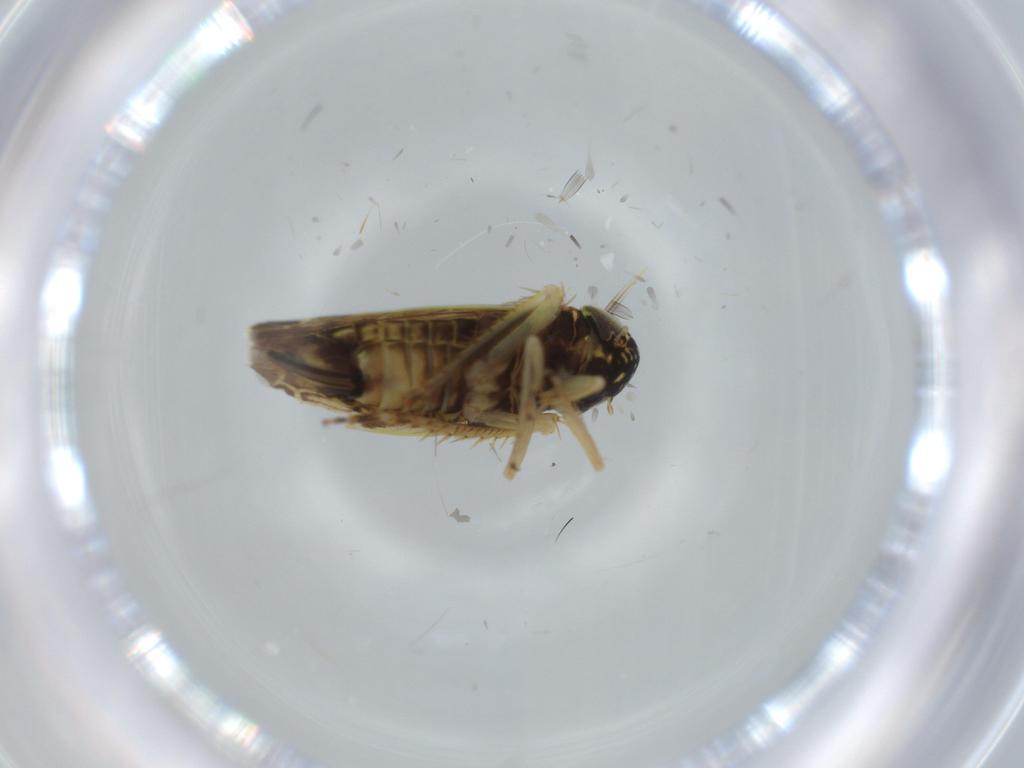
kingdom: Animalia
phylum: Arthropoda
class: Insecta
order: Hemiptera
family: Cicadellidae
